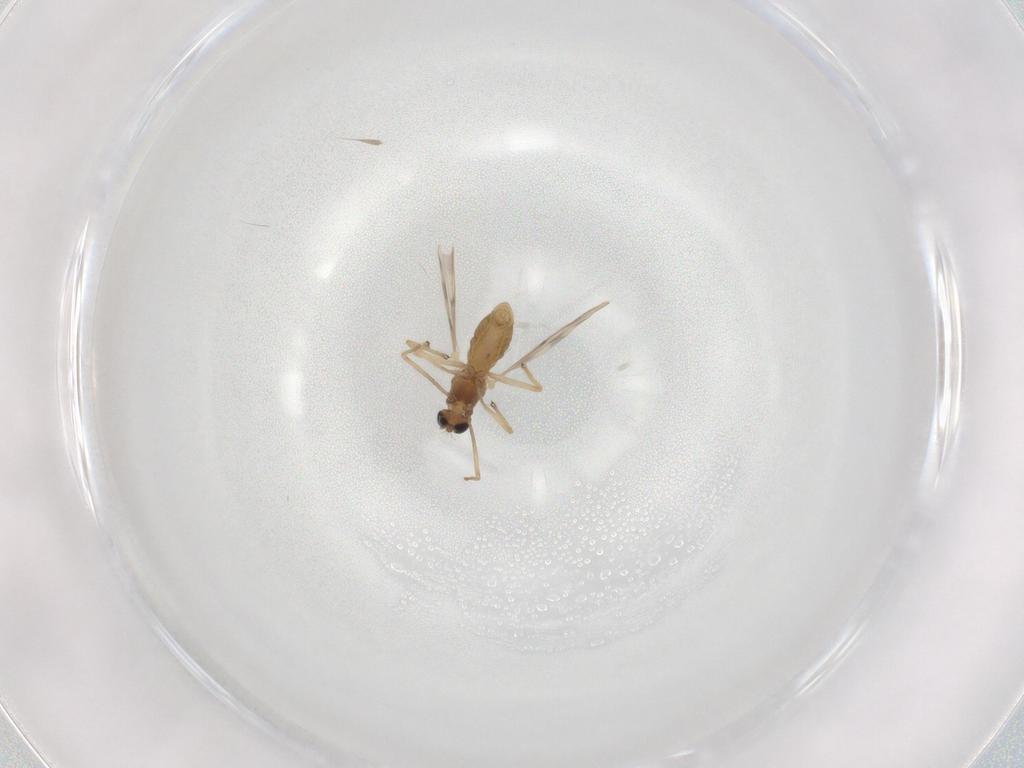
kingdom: Animalia
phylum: Arthropoda
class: Insecta
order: Diptera
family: Chironomidae
